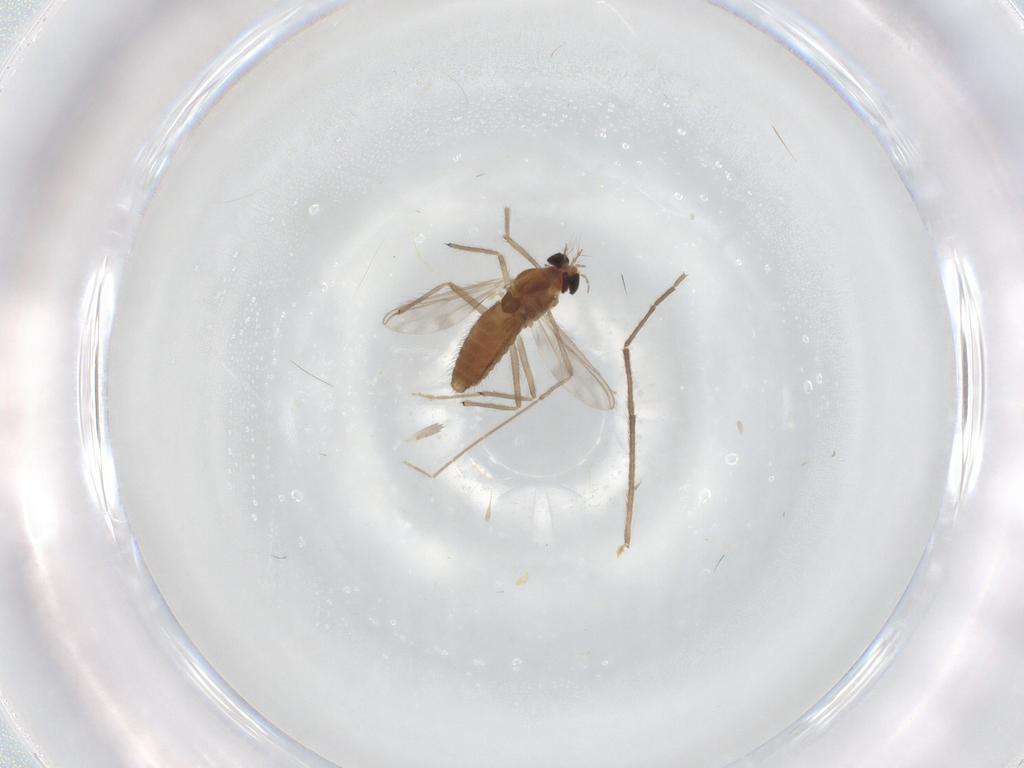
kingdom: Animalia
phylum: Arthropoda
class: Insecta
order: Diptera
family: Chironomidae
